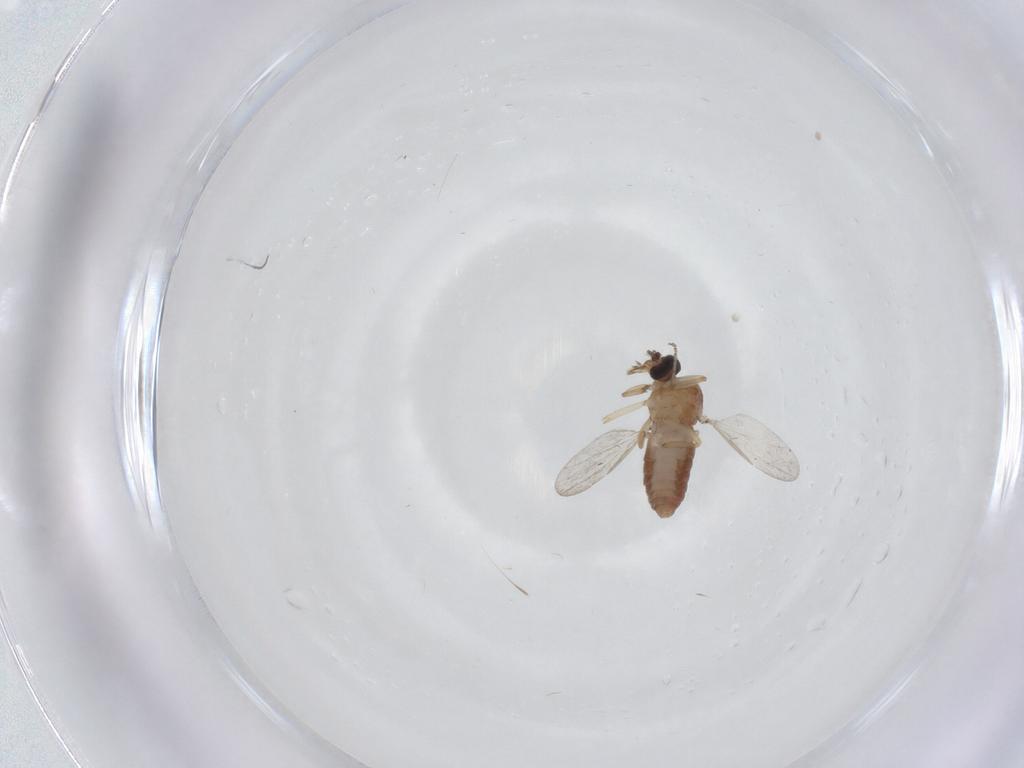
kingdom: Animalia
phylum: Arthropoda
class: Insecta
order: Diptera
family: Ceratopogonidae
